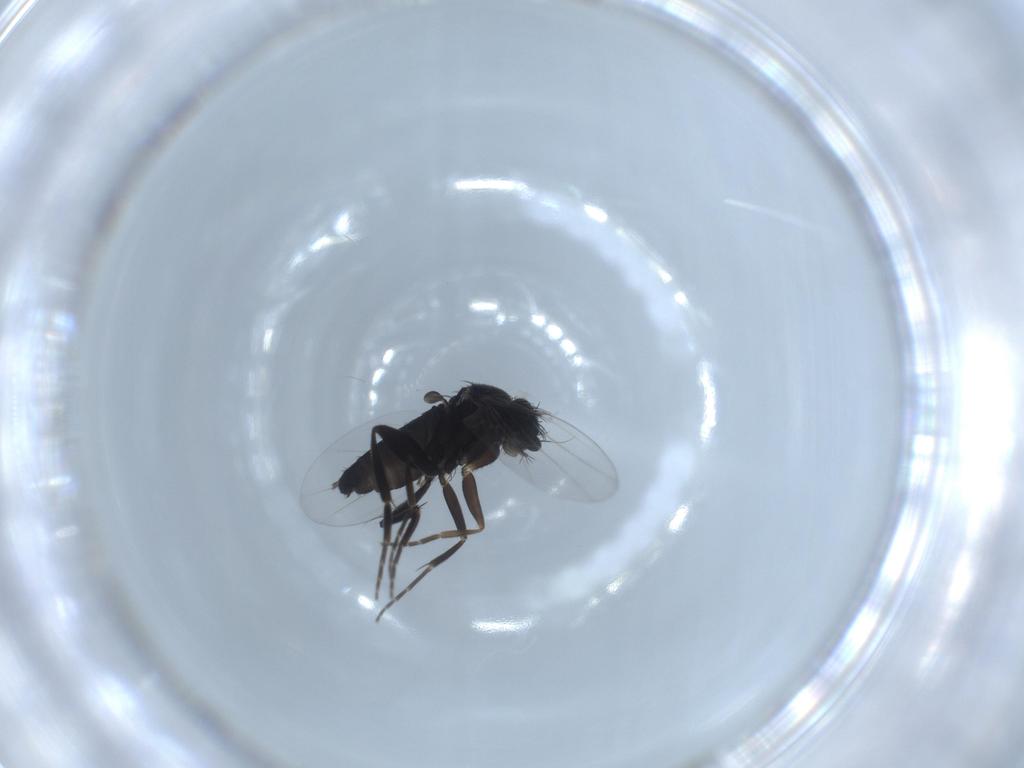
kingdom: Animalia
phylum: Arthropoda
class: Insecta
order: Diptera
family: Phoridae
